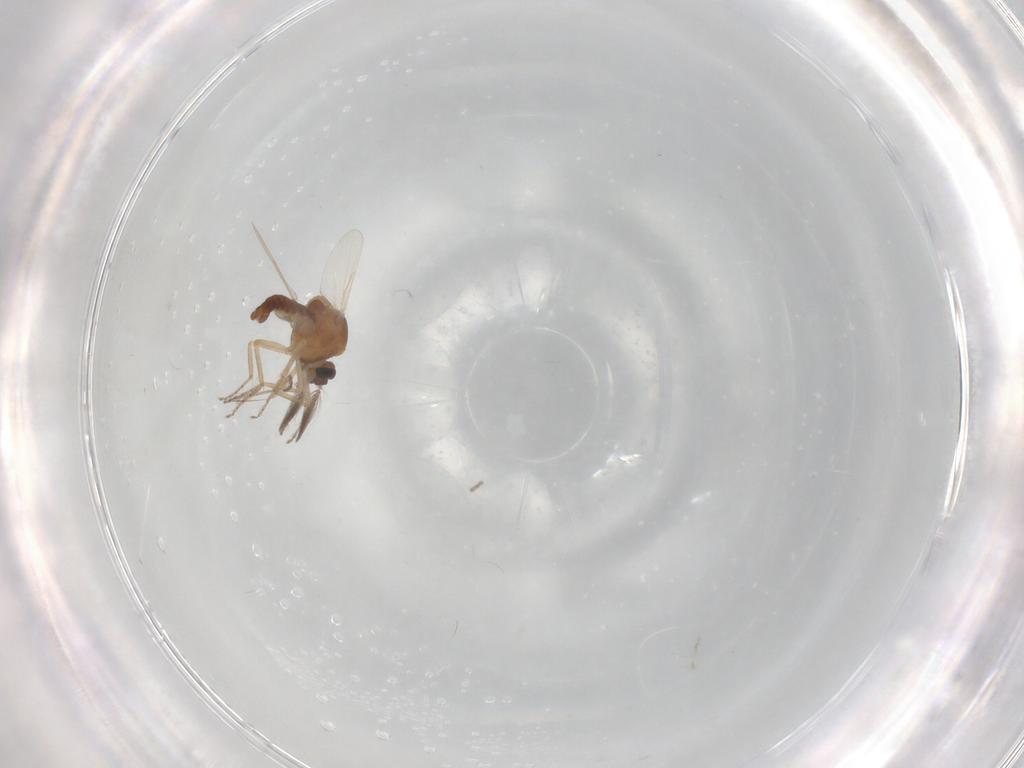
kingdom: Animalia
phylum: Arthropoda
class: Insecta
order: Diptera
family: Ceratopogonidae
